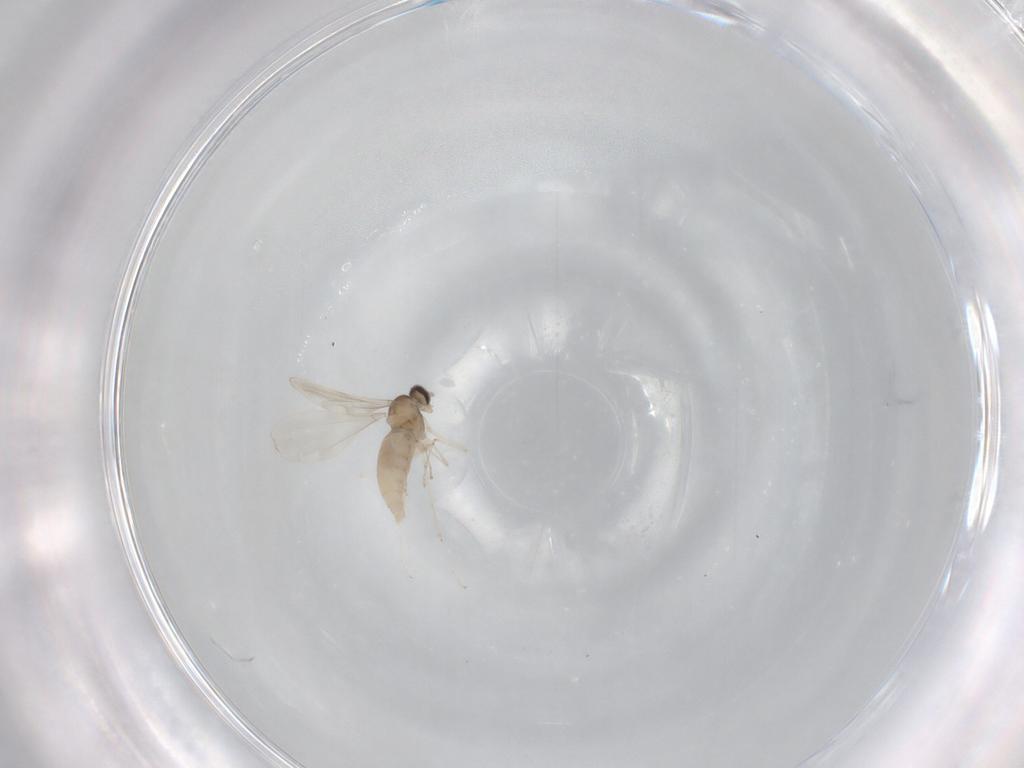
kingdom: Animalia
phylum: Arthropoda
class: Insecta
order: Diptera
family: Cecidomyiidae
